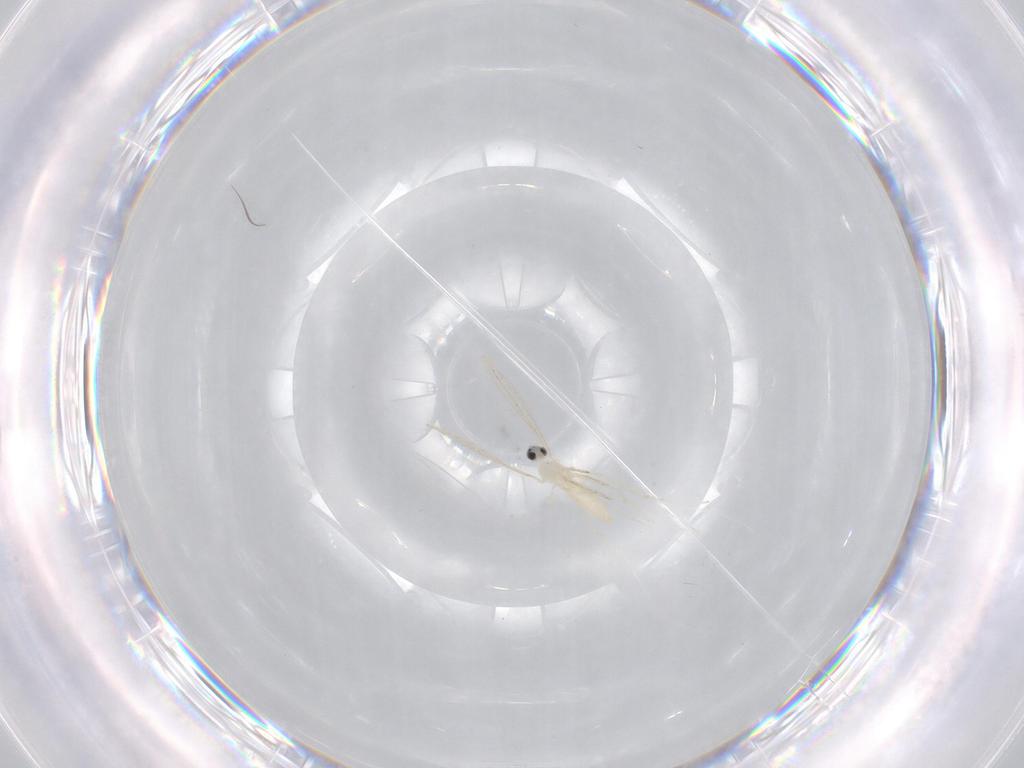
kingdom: Animalia
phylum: Arthropoda
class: Insecta
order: Diptera
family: Cecidomyiidae
